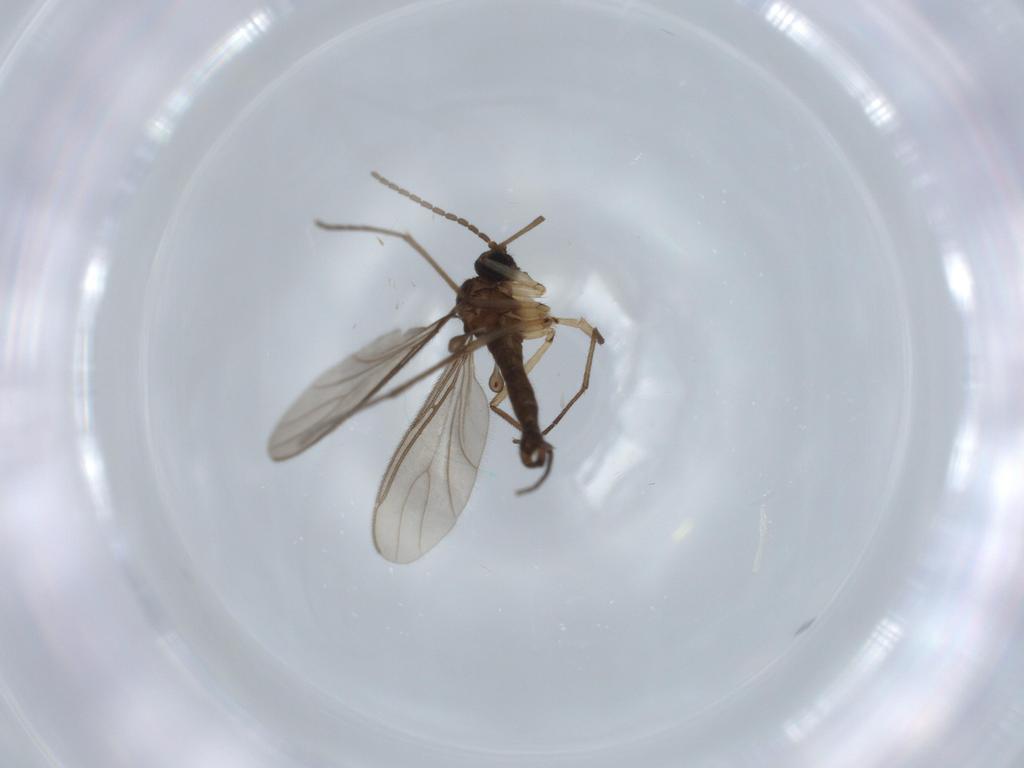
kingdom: Animalia
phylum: Arthropoda
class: Insecta
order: Diptera
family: Sciaridae
